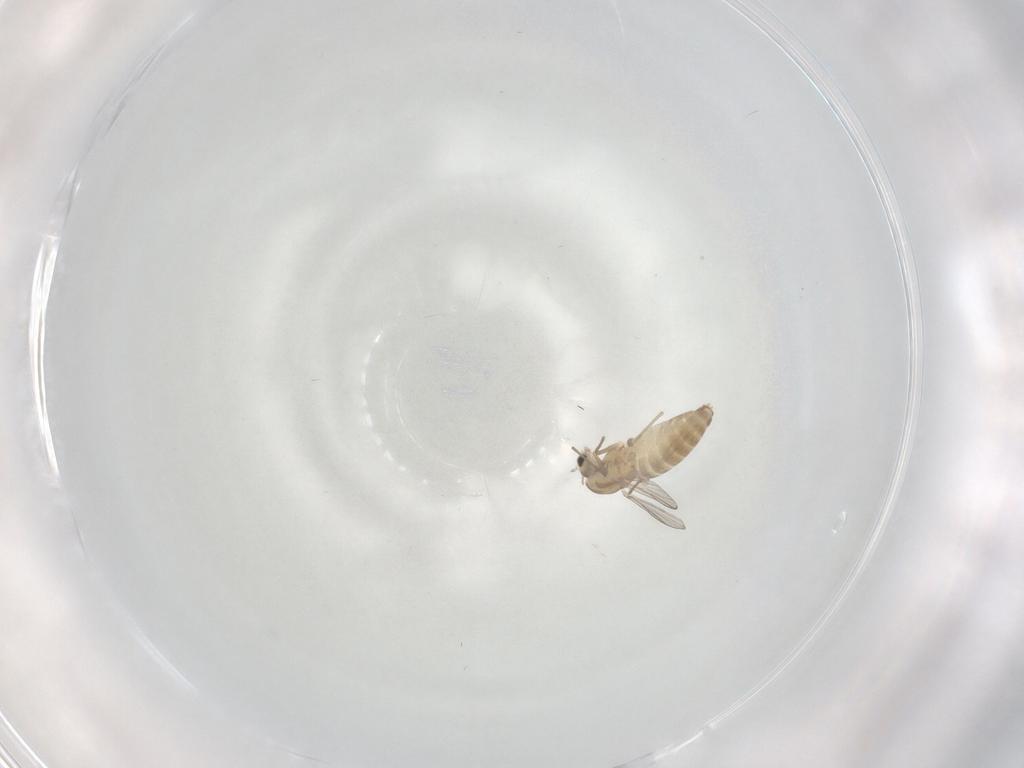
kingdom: Animalia
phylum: Arthropoda
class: Insecta
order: Diptera
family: Chironomidae
